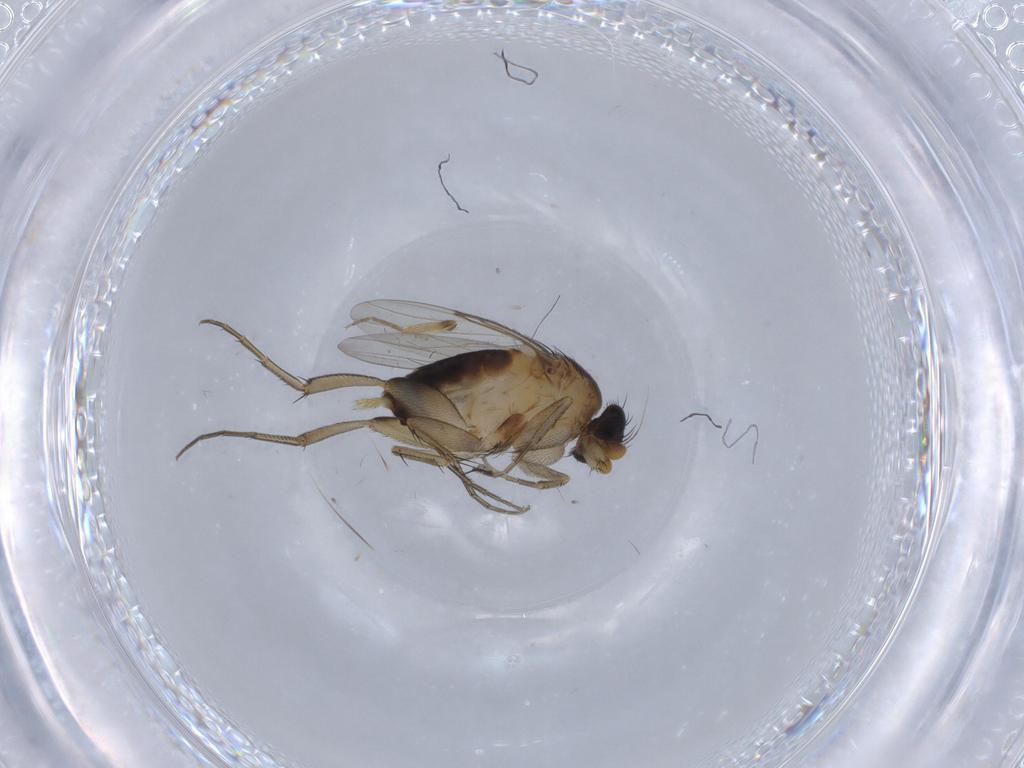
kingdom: Animalia
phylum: Arthropoda
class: Insecta
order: Diptera
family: Ceratopogonidae
